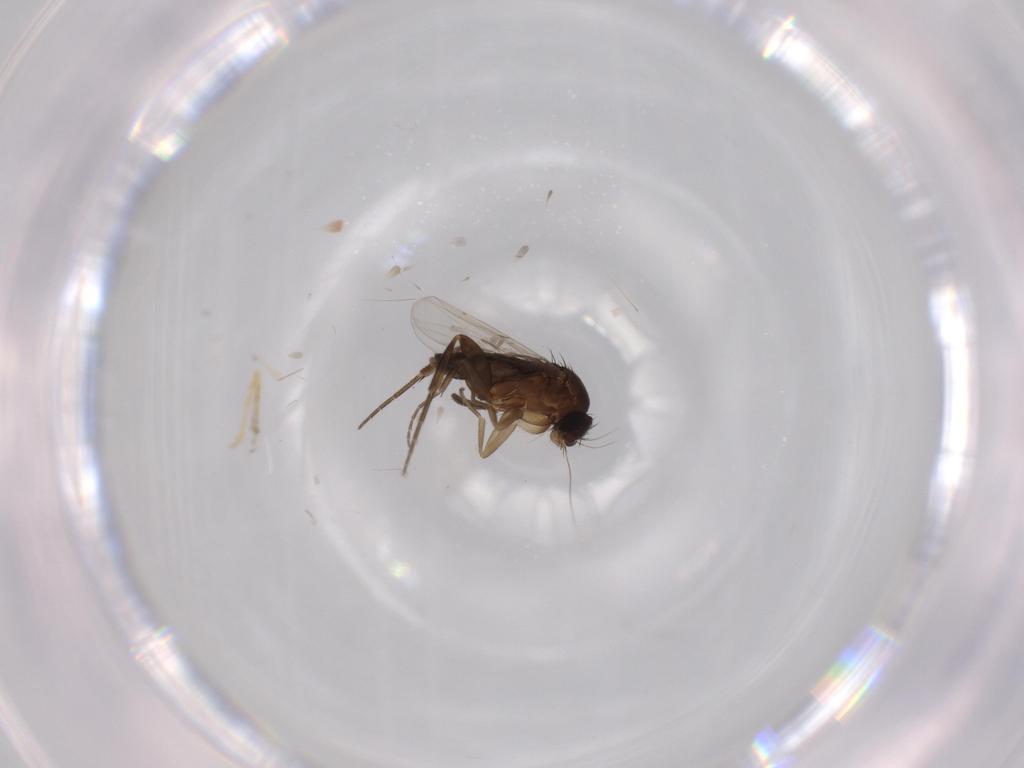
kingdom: Animalia
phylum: Arthropoda
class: Insecta
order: Diptera
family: Phoridae
